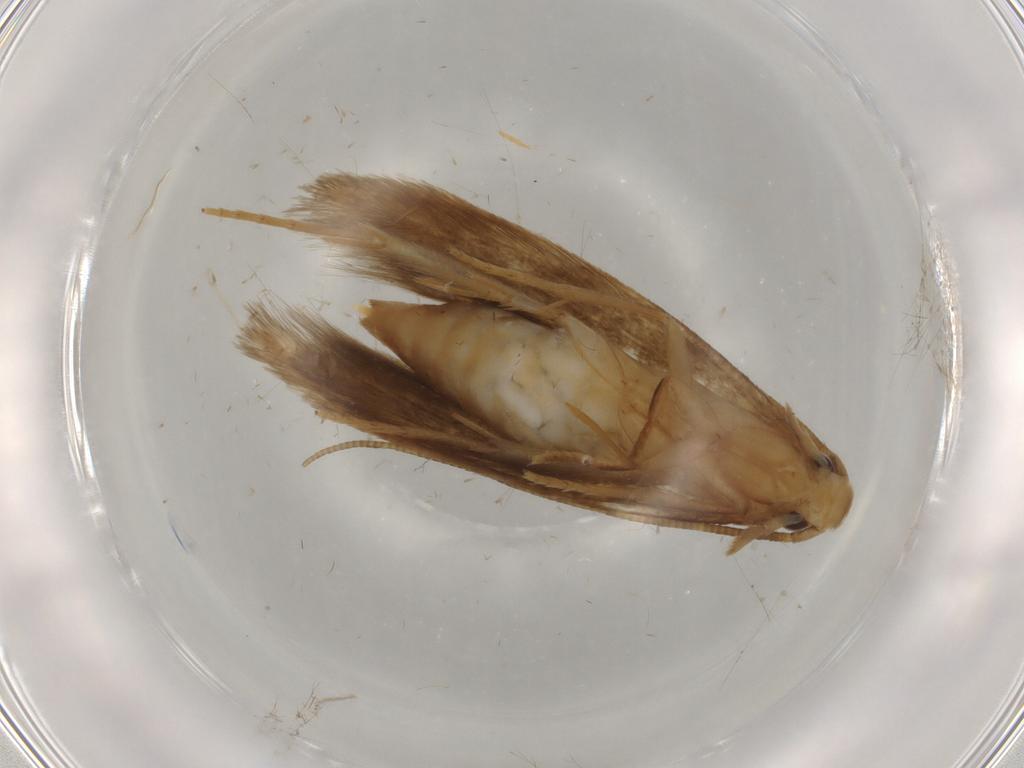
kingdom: Animalia
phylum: Arthropoda
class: Insecta
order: Lepidoptera
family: Tineidae
